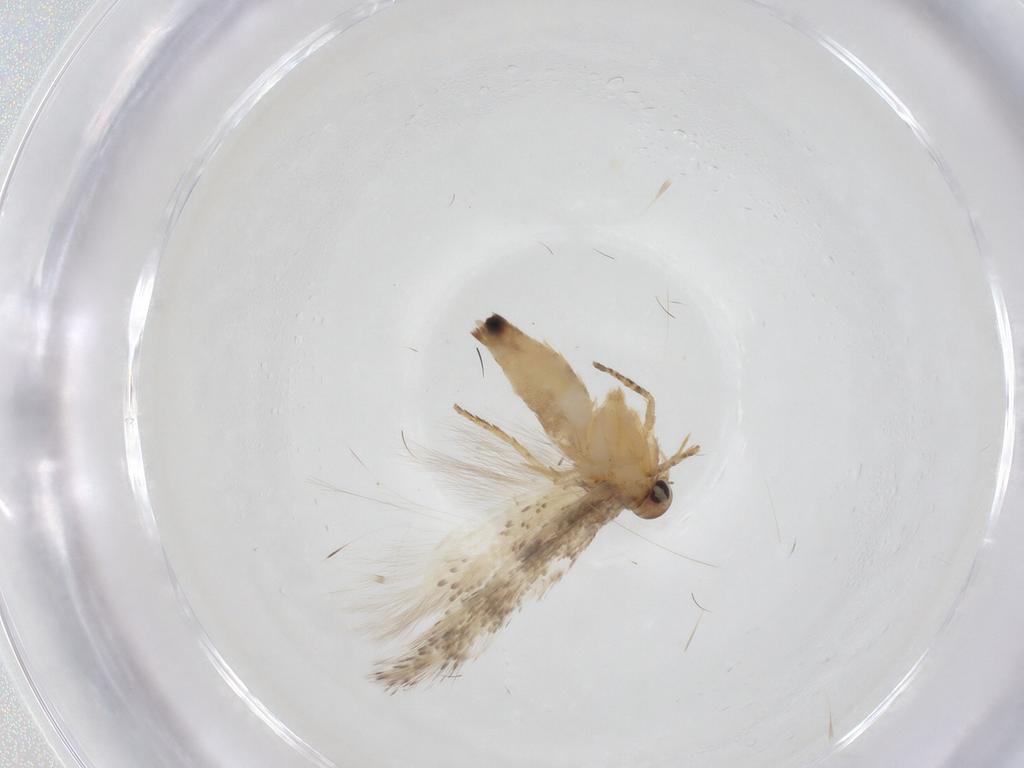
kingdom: Animalia
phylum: Arthropoda
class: Insecta
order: Lepidoptera
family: Gelechiidae
